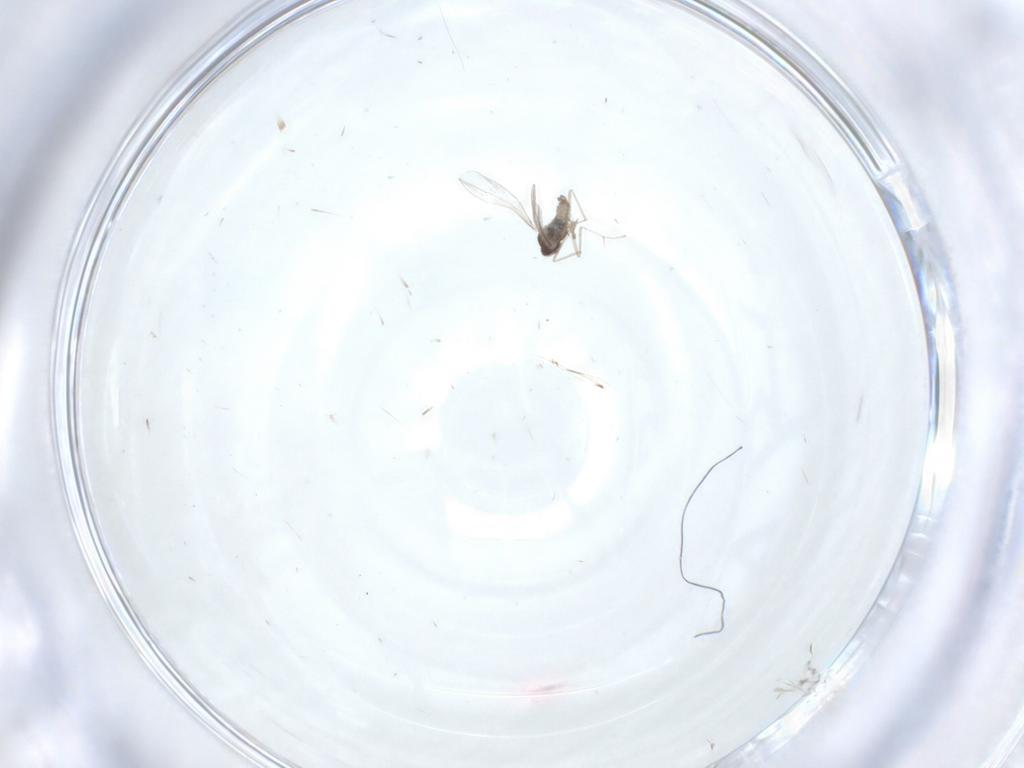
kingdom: Animalia
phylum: Arthropoda
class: Insecta
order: Diptera
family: Cecidomyiidae
